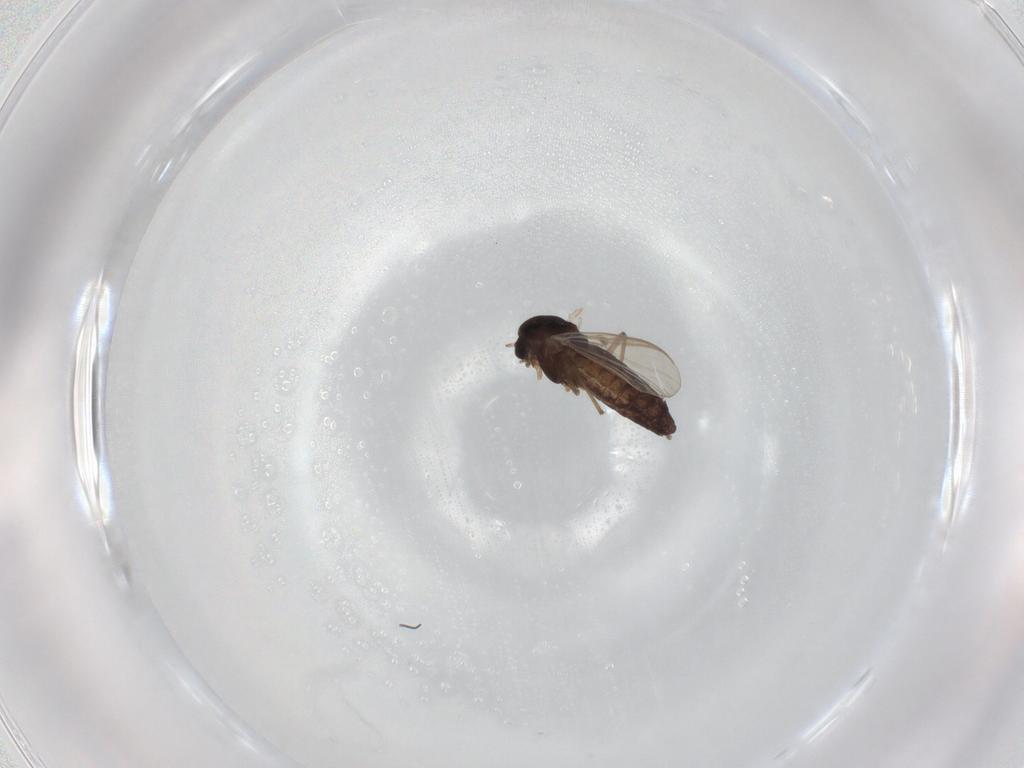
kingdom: Animalia
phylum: Arthropoda
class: Insecta
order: Diptera
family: Chironomidae
